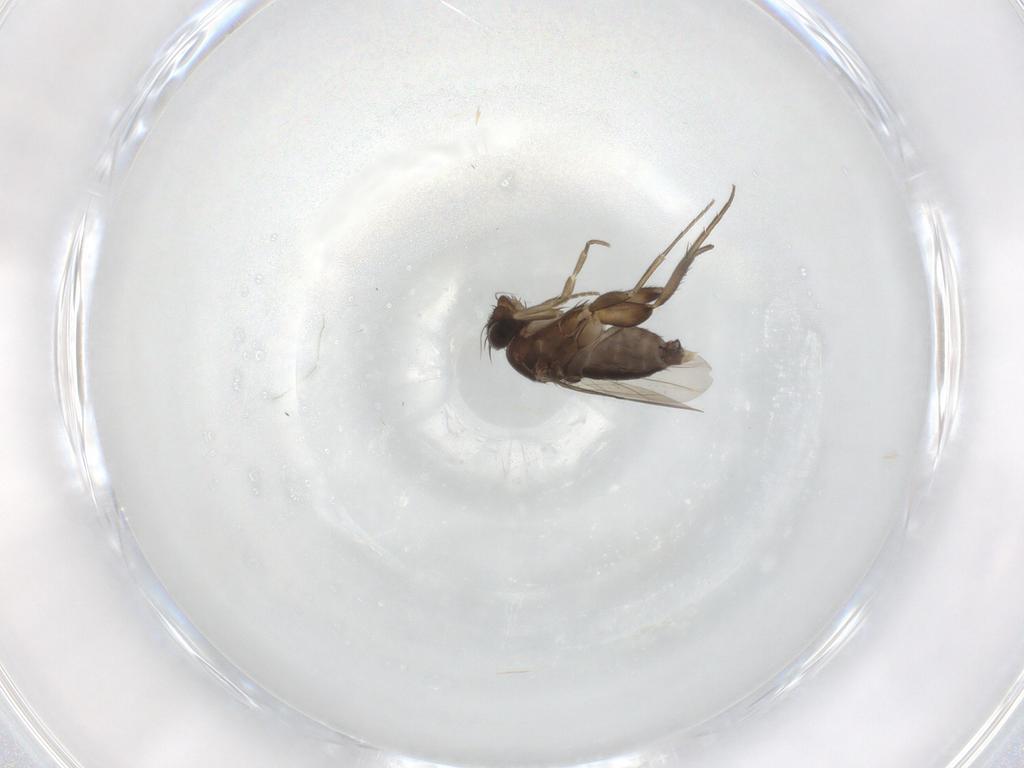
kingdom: Animalia
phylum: Arthropoda
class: Insecta
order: Diptera
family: Phoridae
